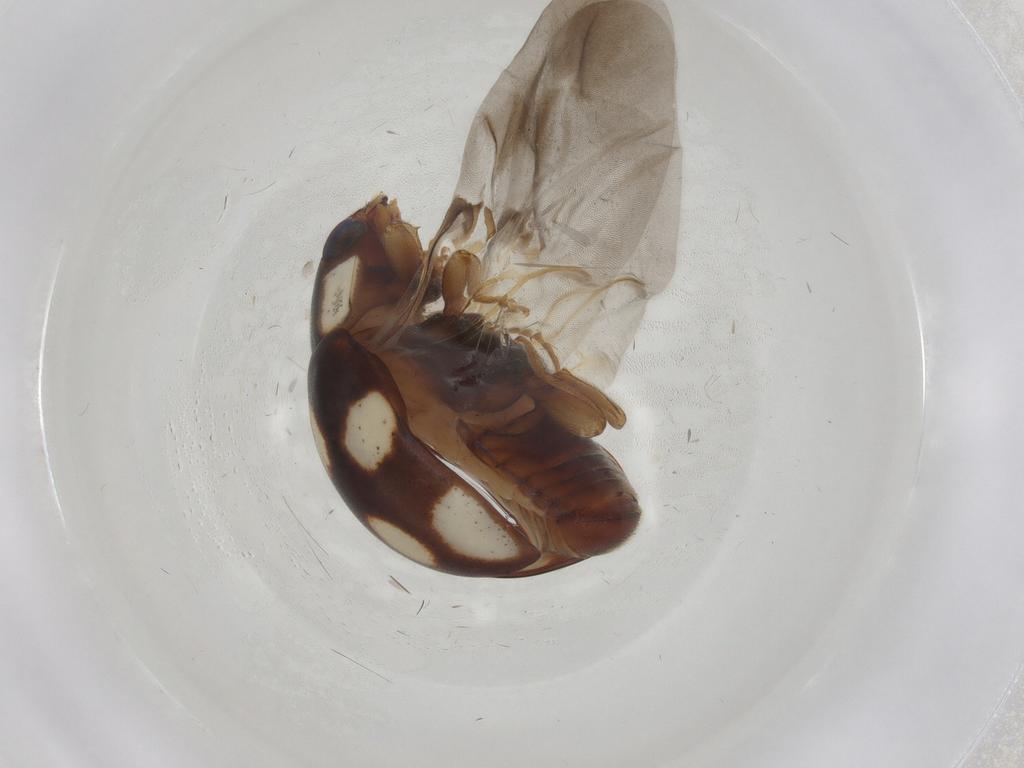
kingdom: Animalia
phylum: Arthropoda
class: Insecta
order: Coleoptera
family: Coccinellidae
